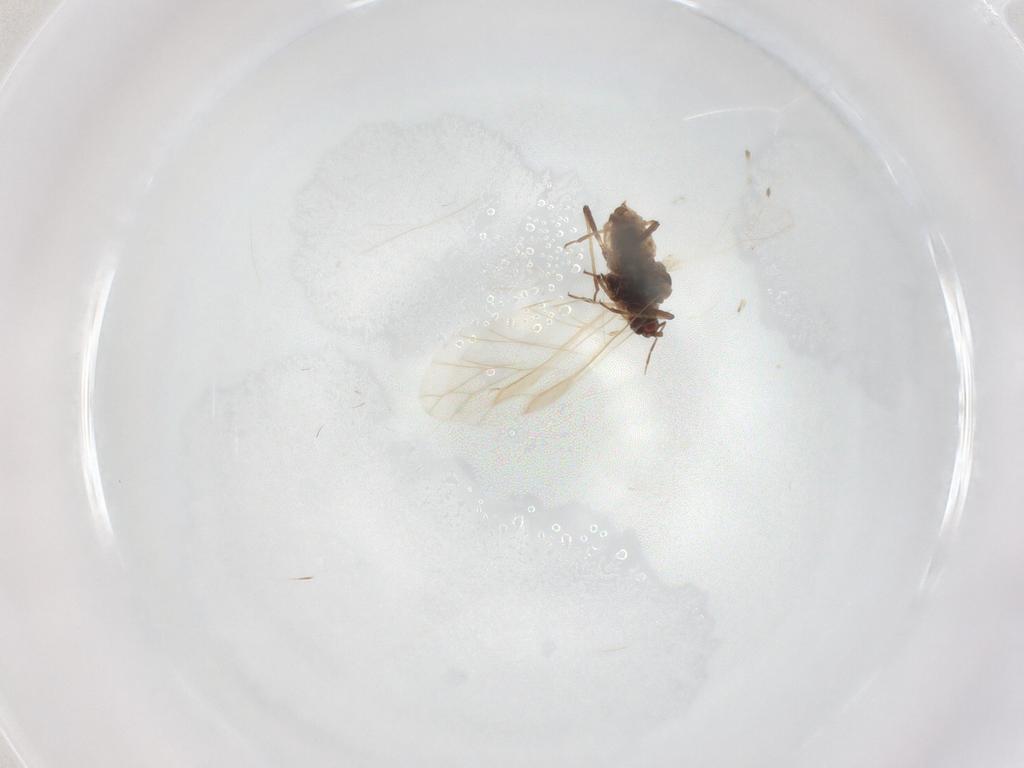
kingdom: Animalia
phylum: Arthropoda
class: Insecta
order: Hemiptera
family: Aphididae
